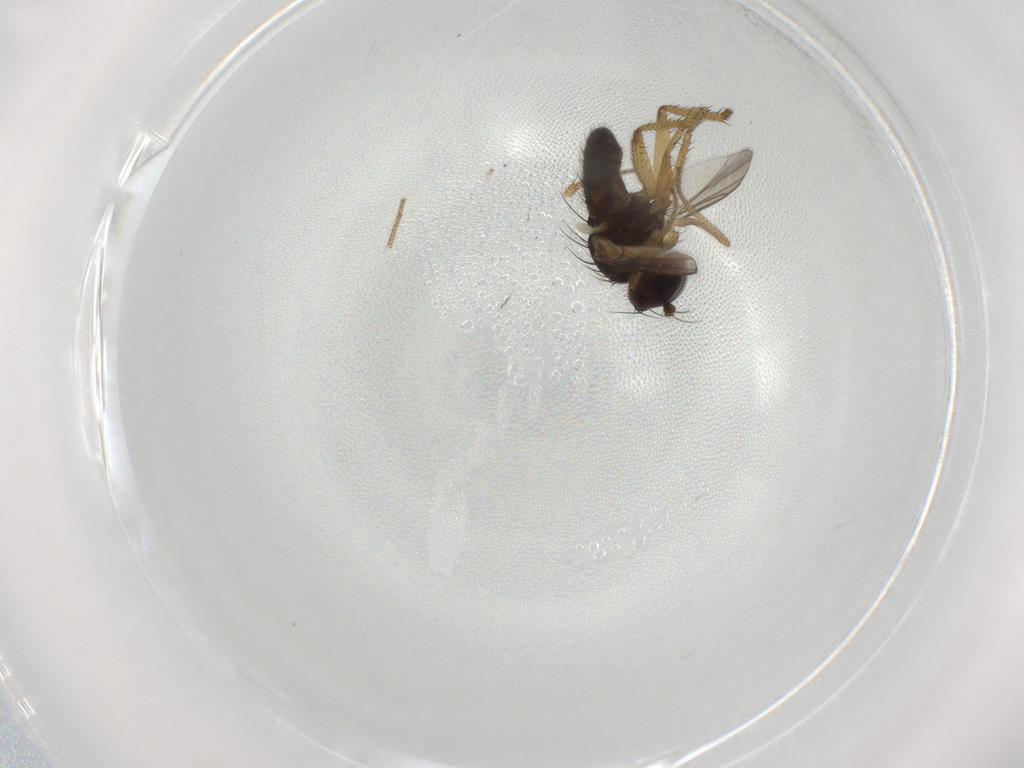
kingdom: Animalia
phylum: Arthropoda
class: Insecta
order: Diptera
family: Dolichopodidae
